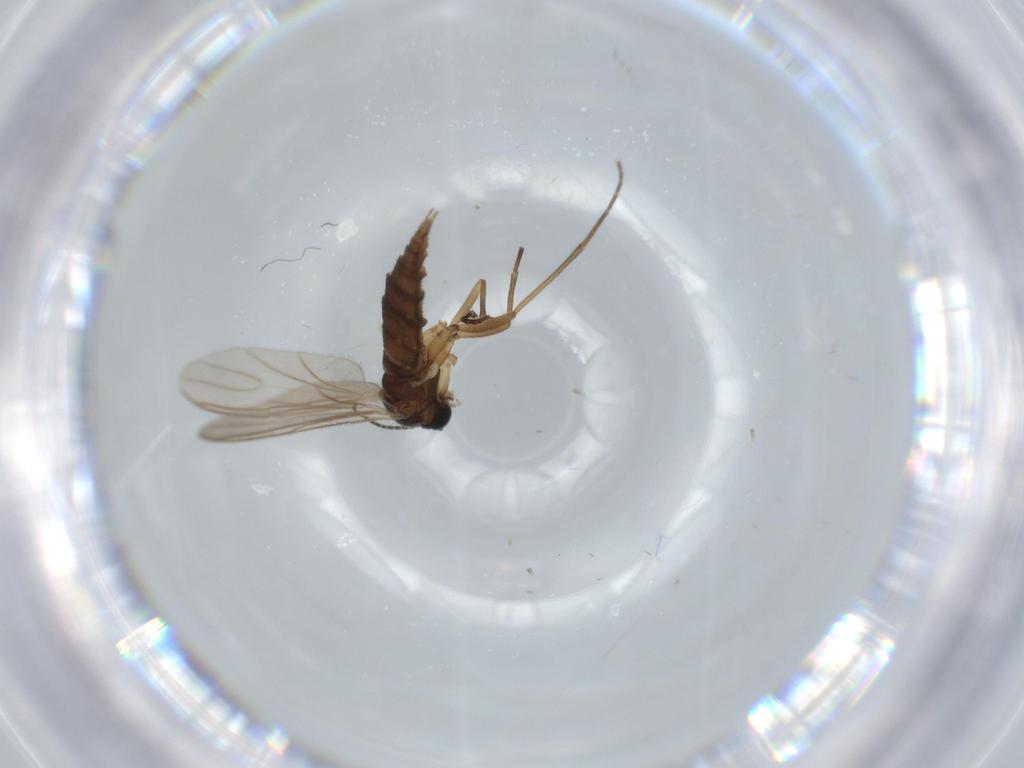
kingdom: Animalia
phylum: Arthropoda
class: Insecta
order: Diptera
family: Sciaridae
